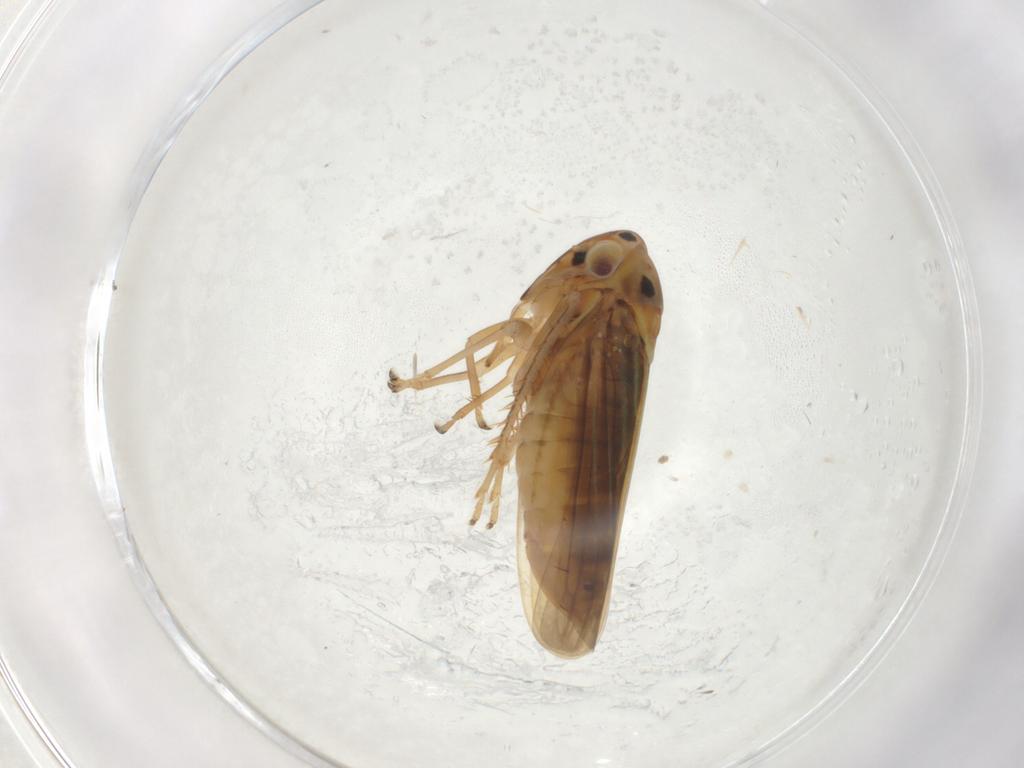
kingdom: Animalia
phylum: Arthropoda
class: Insecta
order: Hemiptera
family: Cicadellidae
